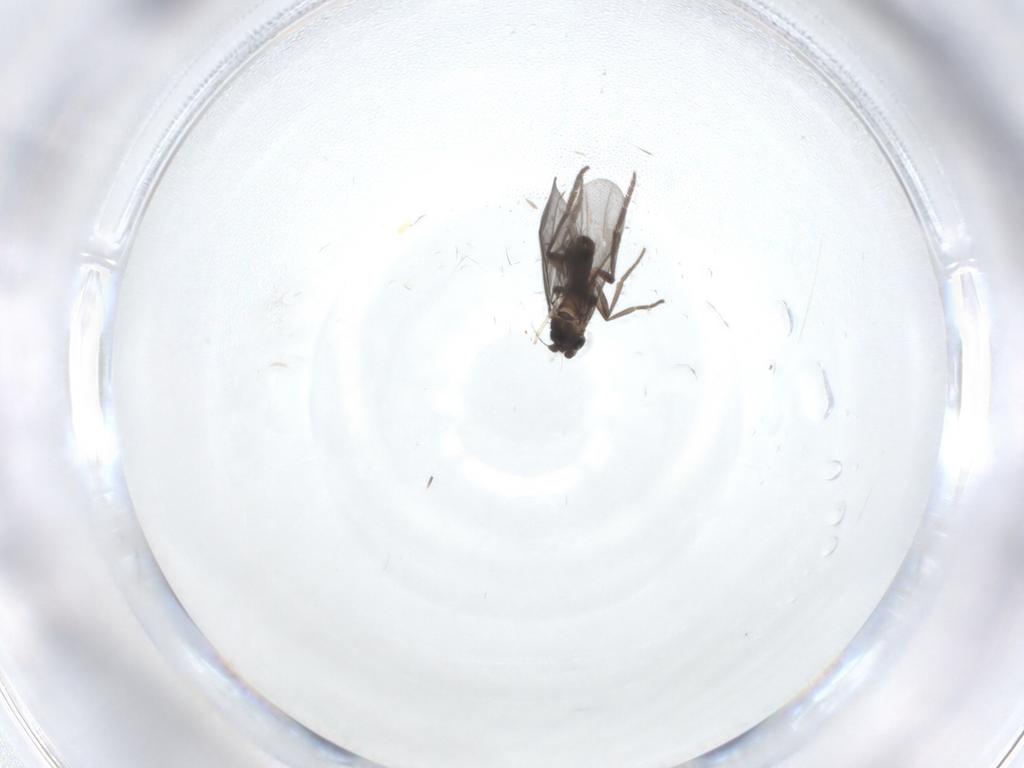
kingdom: Animalia
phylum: Arthropoda
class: Insecta
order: Diptera
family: Phoridae
